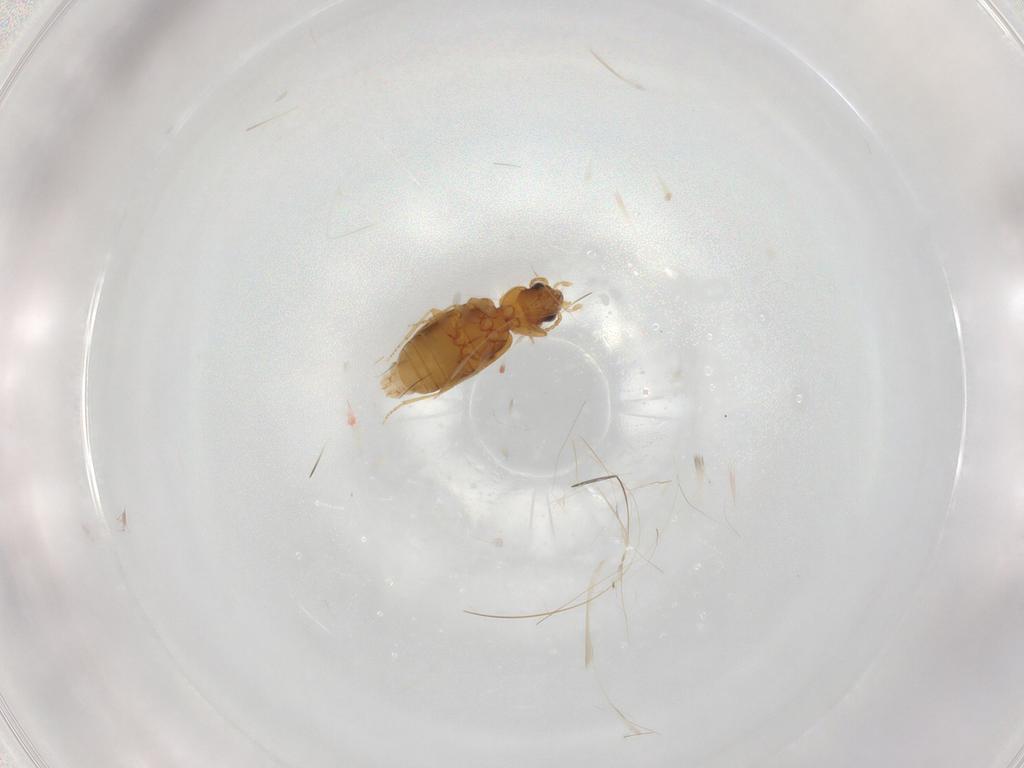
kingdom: Animalia
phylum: Arthropoda
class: Insecta
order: Coleoptera
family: Carabidae
